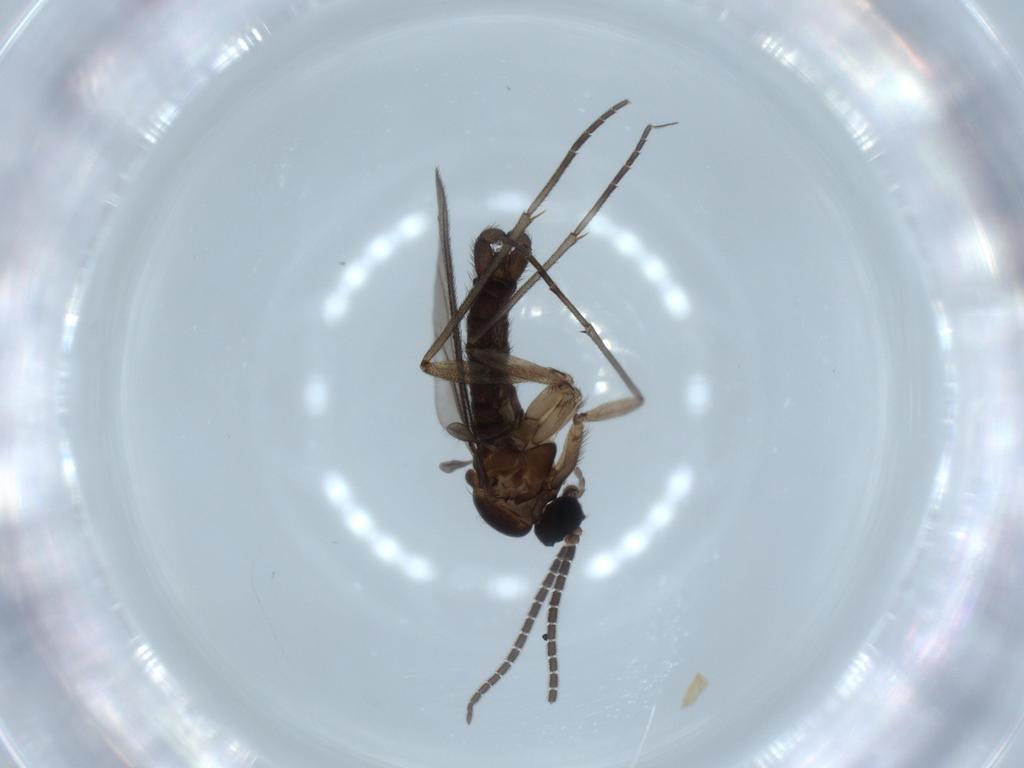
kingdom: Animalia
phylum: Arthropoda
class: Insecta
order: Diptera
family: Sciaridae
